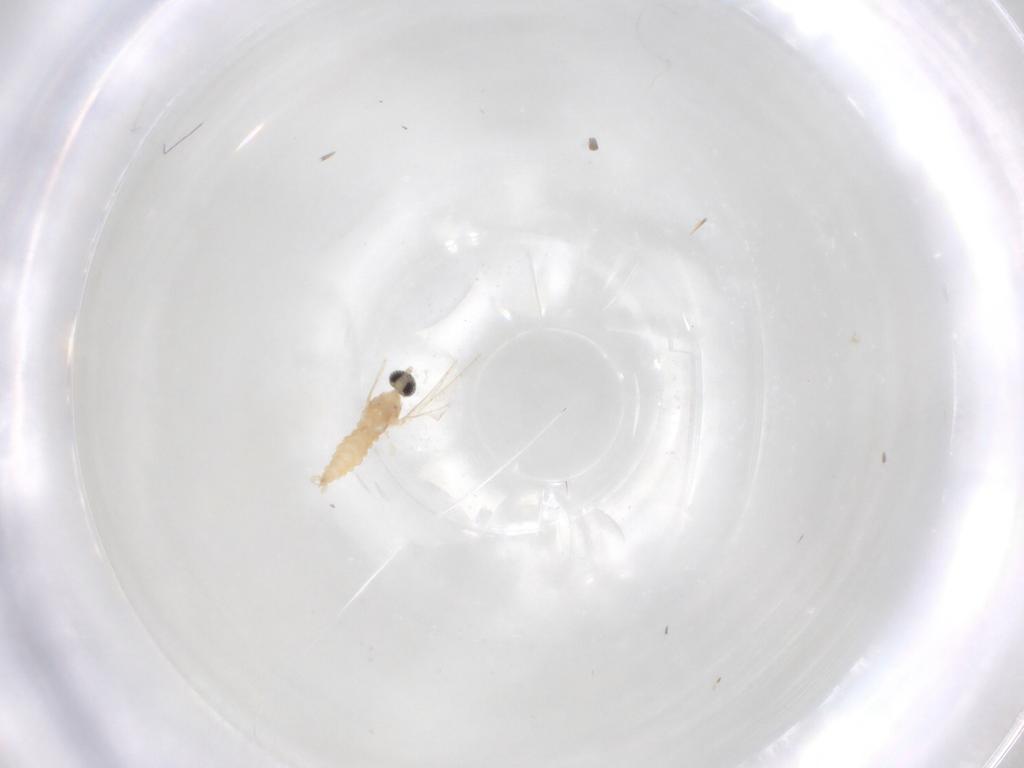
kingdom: Animalia
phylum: Arthropoda
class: Insecta
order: Diptera
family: Cecidomyiidae
